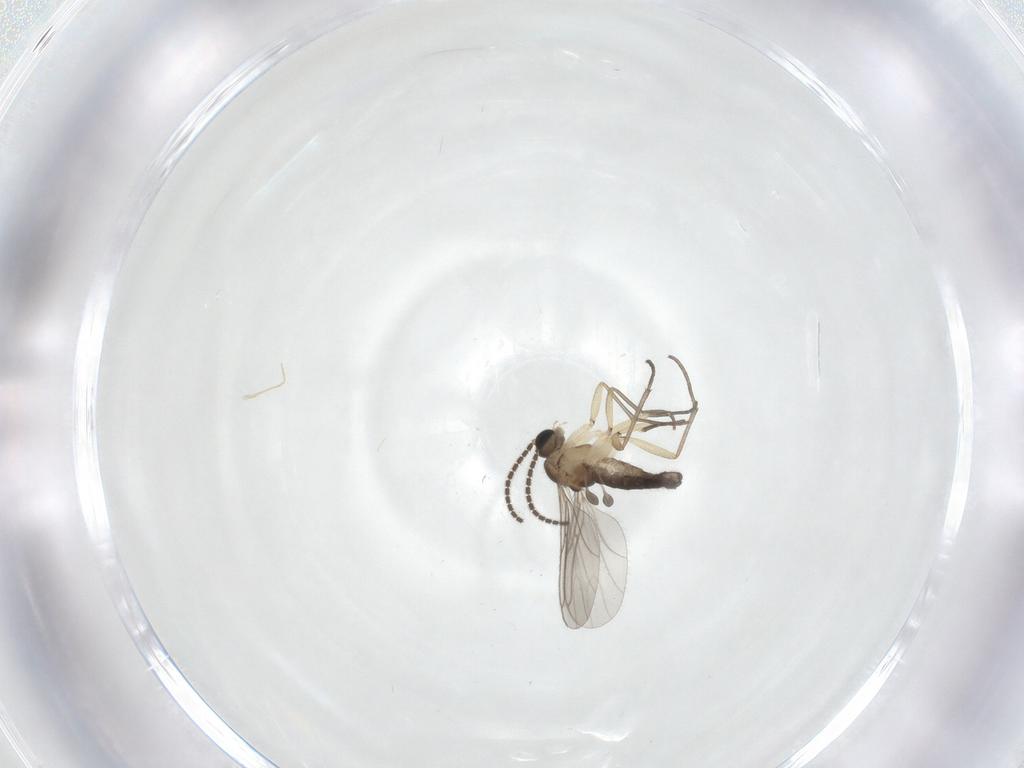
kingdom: Animalia
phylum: Arthropoda
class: Insecta
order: Diptera
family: Sciaridae
